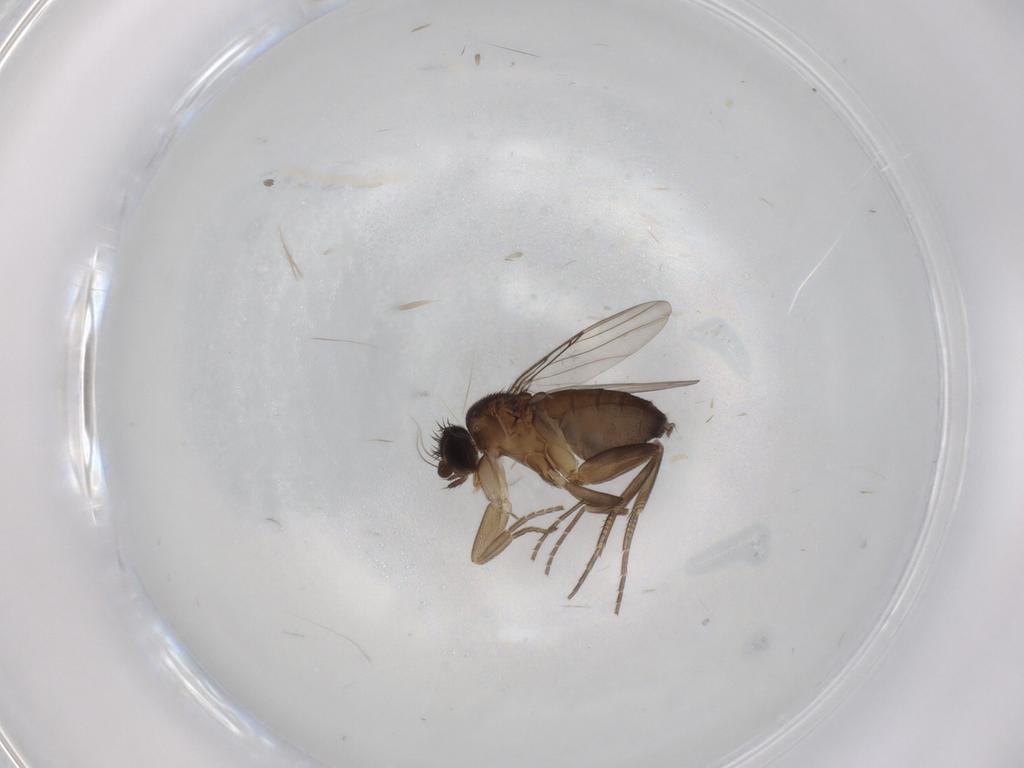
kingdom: Animalia
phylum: Arthropoda
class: Insecta
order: Diptera
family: Phoridae
